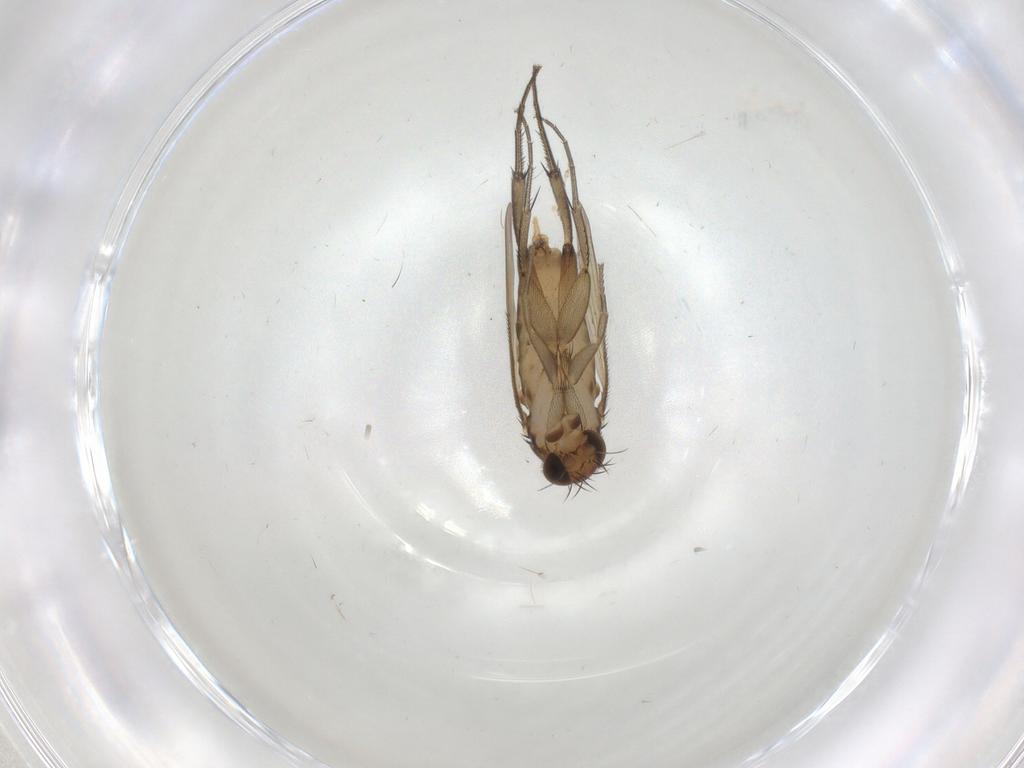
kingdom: Animalia
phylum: Arthropoda
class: Insecta
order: Diptera
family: Phoridae
